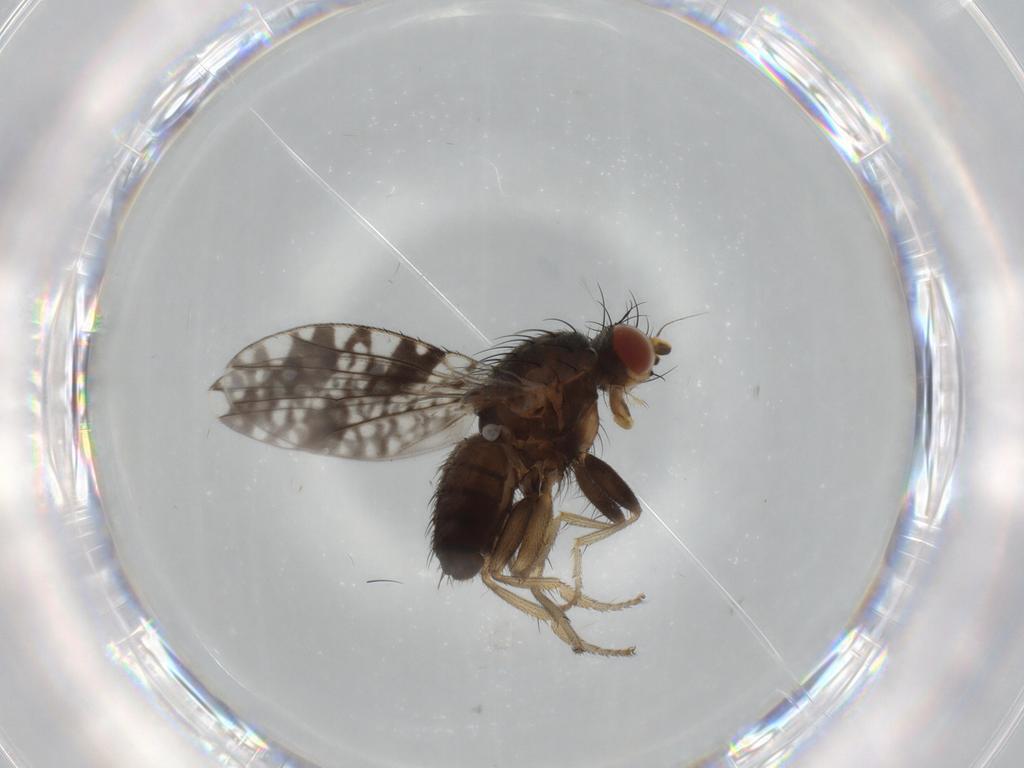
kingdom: Animalia
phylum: Arthropoda
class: Insecta
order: Diptera
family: Tephritidae
